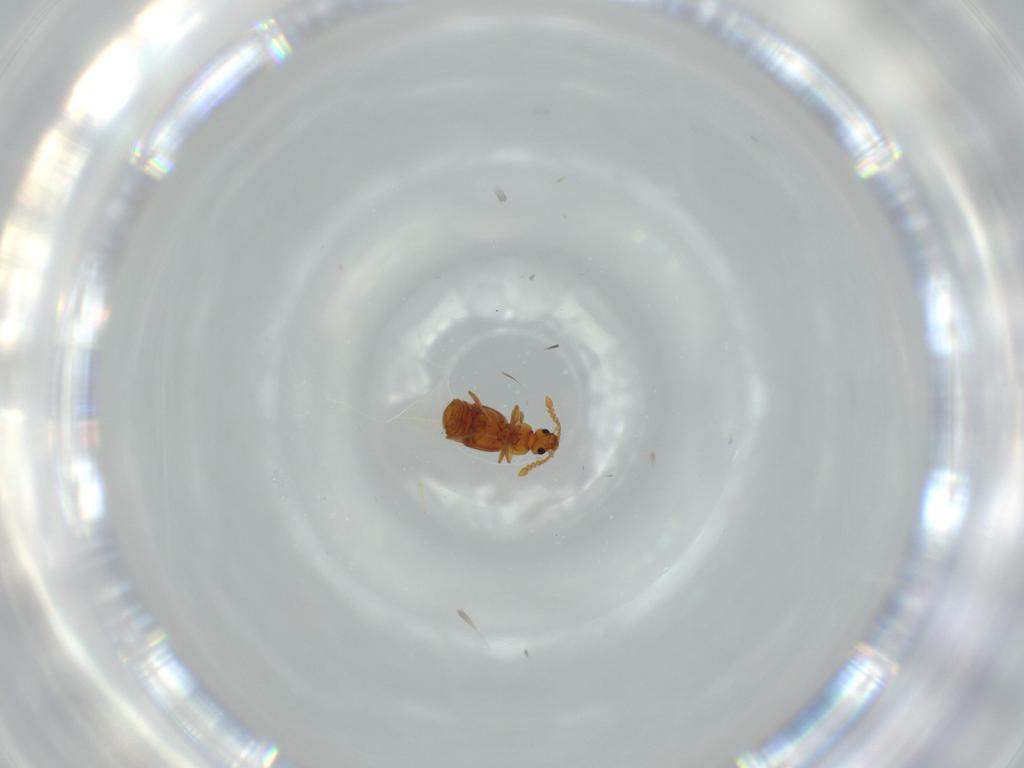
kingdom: Animalia
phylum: Arthropoda
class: Insecta
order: Coleoptera
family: Staphylinidae
